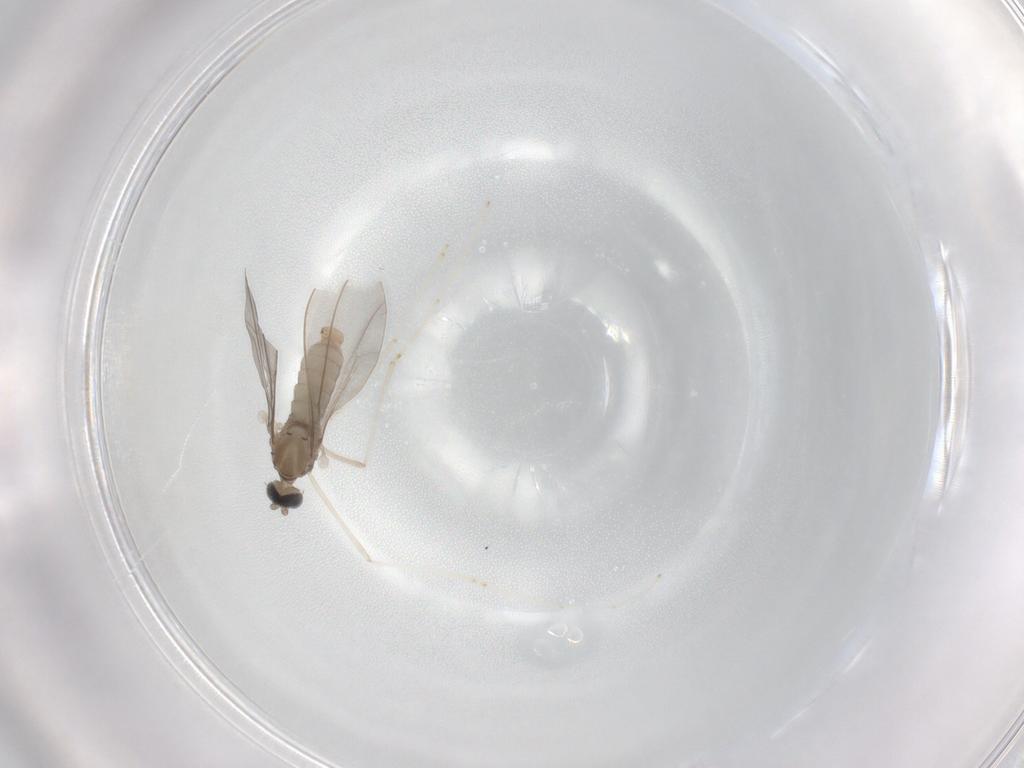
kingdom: Animalia
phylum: Arthropoda
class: Insecta
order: Diptera
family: Cecidomyiidae
